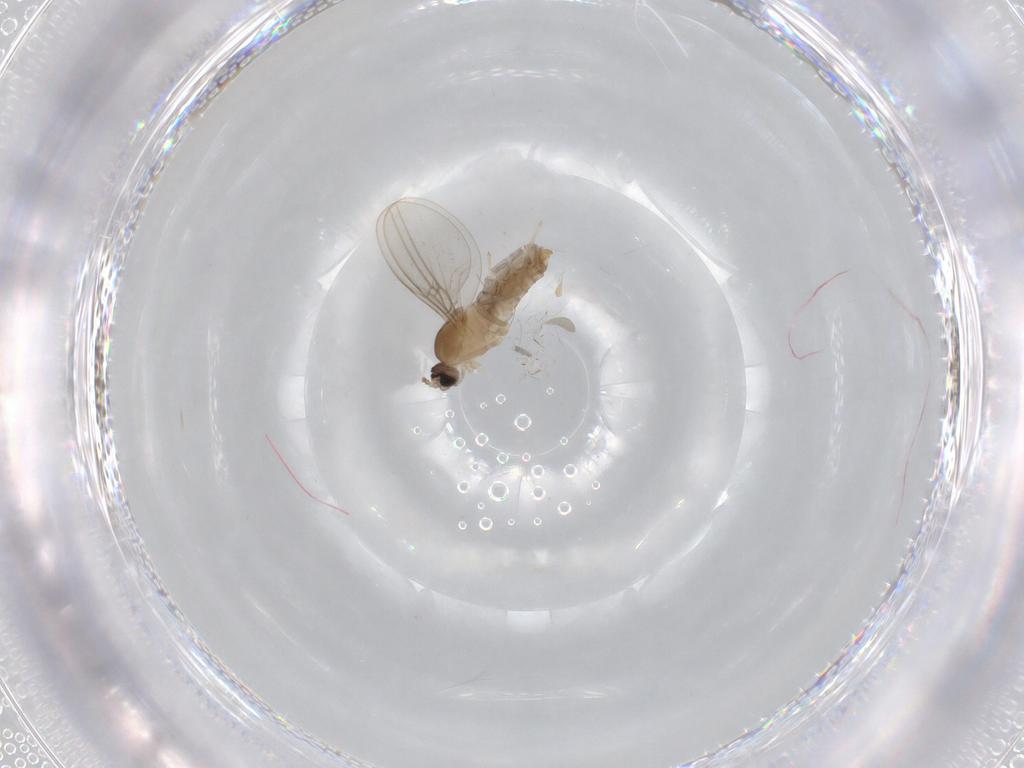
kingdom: Animalia
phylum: Arthropoda
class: Insecta
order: Diptera
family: Cecidomyiidae
